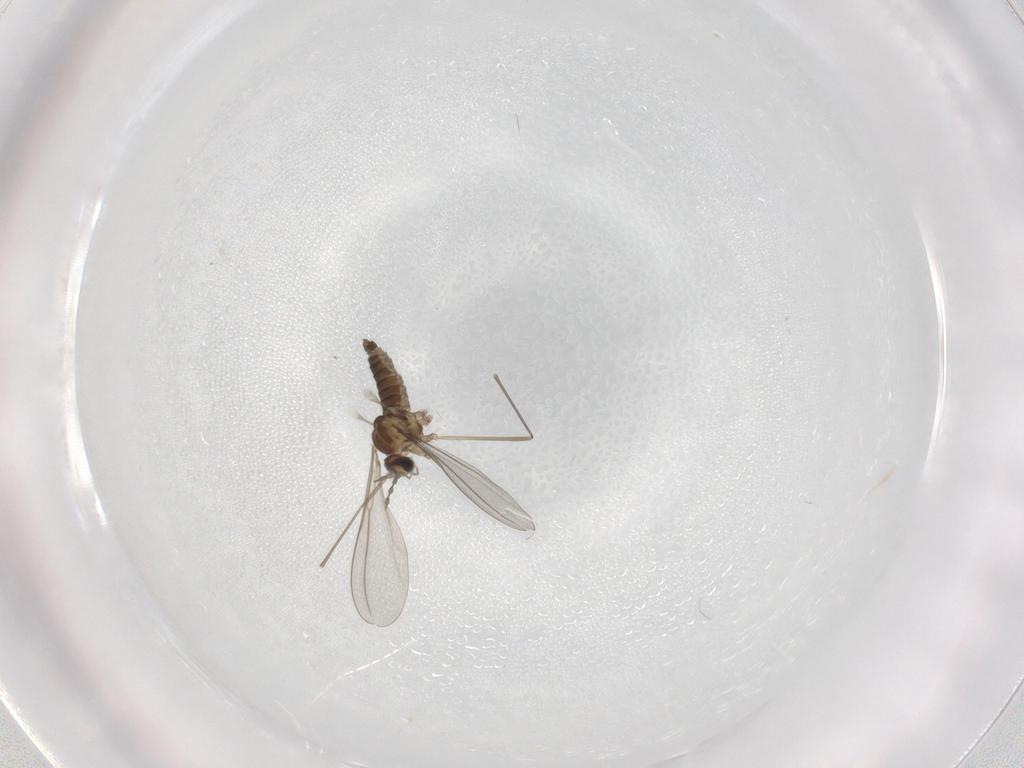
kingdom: Animalia
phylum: Arthropoda
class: Insecta
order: Diptera
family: Cecidomyiidae
